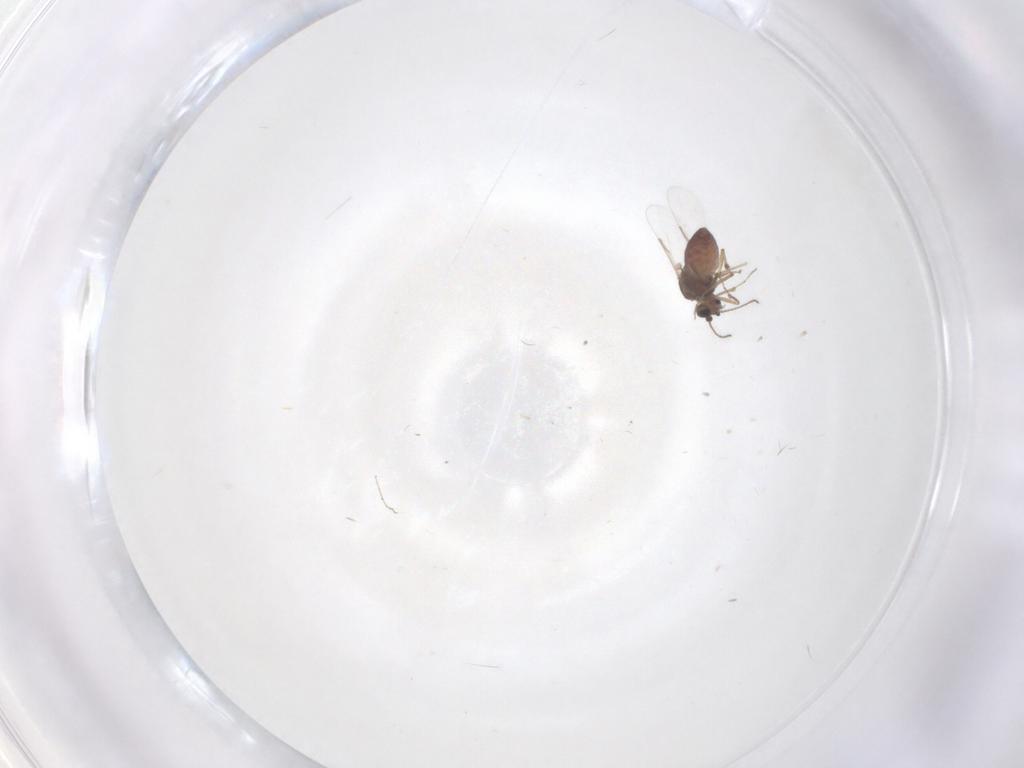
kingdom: Animalia
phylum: Arthropoda
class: Insecta
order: Diptera
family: Ceratopogonidae
